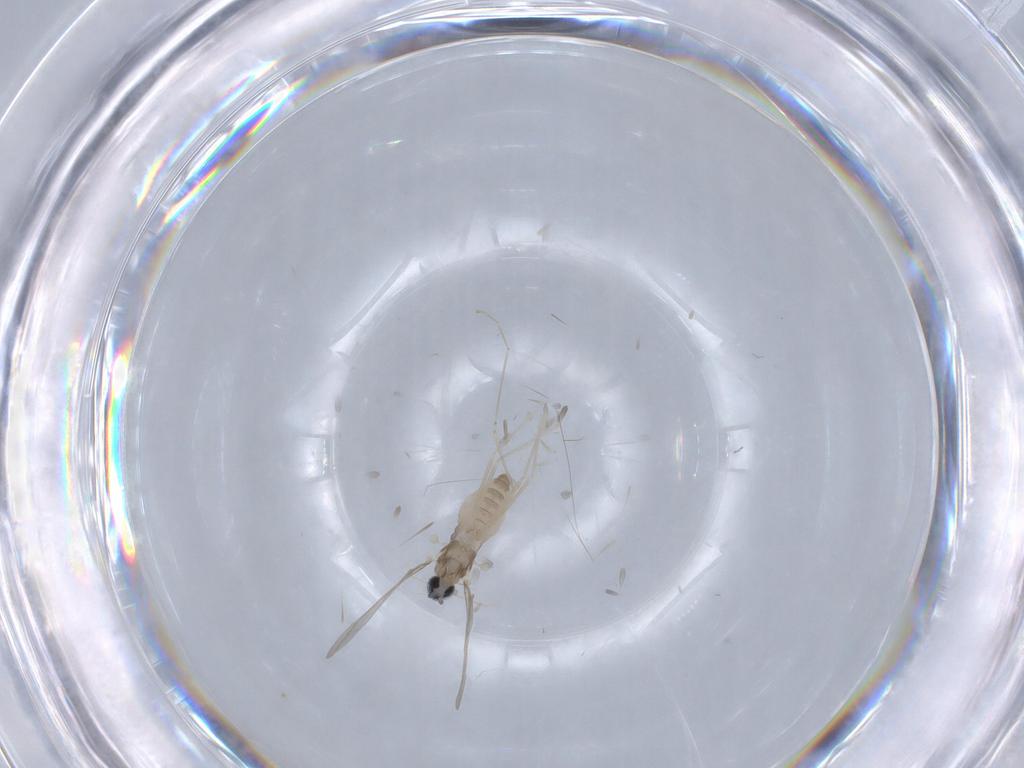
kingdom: Animalia
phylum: Arthropoda
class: Insecta
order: Diptera
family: Cecidomyiidae
